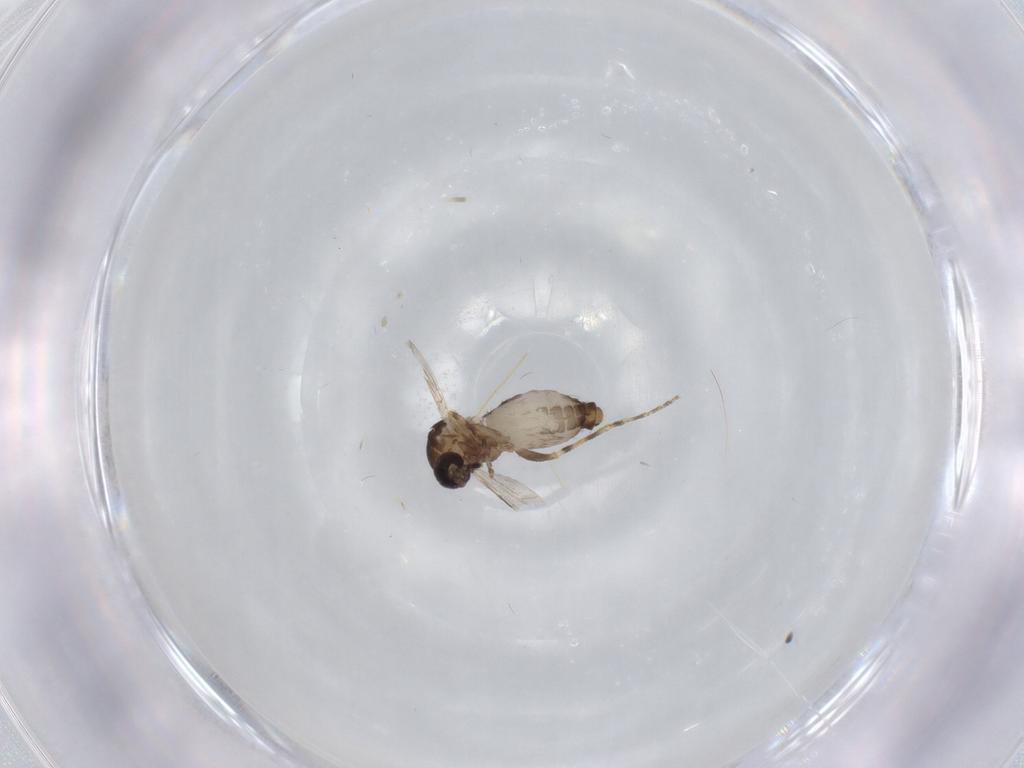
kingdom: Animalia
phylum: Arthropoda
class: Insecta
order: Diptera
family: Ceratopogonidae
